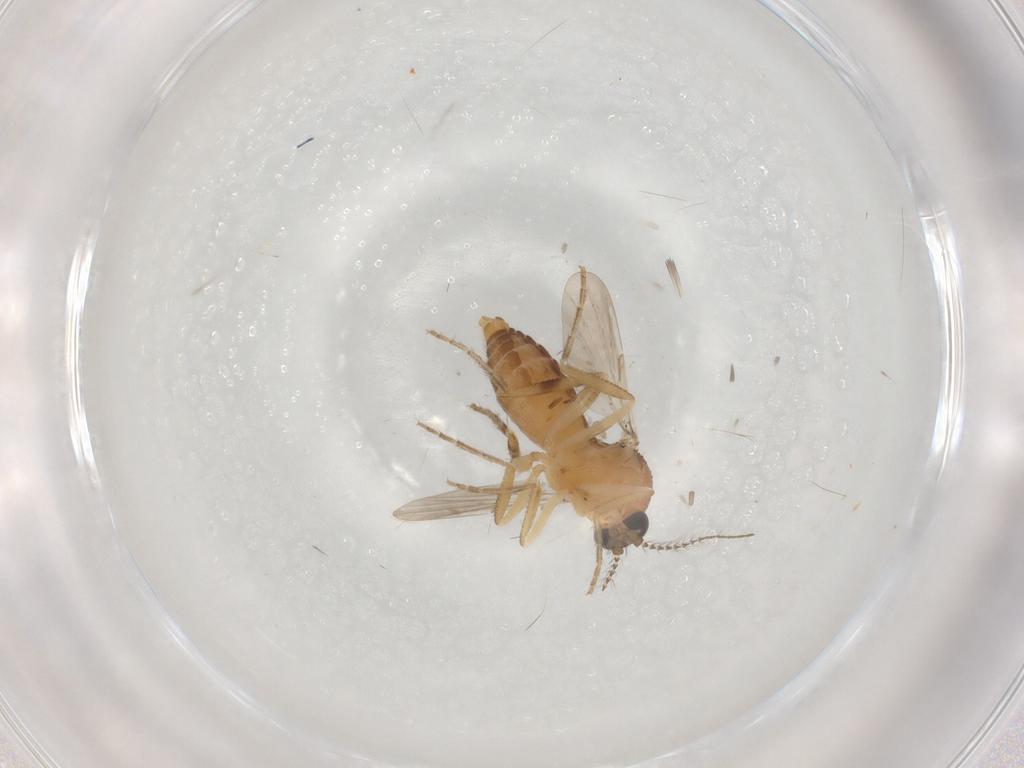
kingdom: Animalia
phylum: Arthropoda
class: Insecta
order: Diptera
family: Ceratopogonidae
